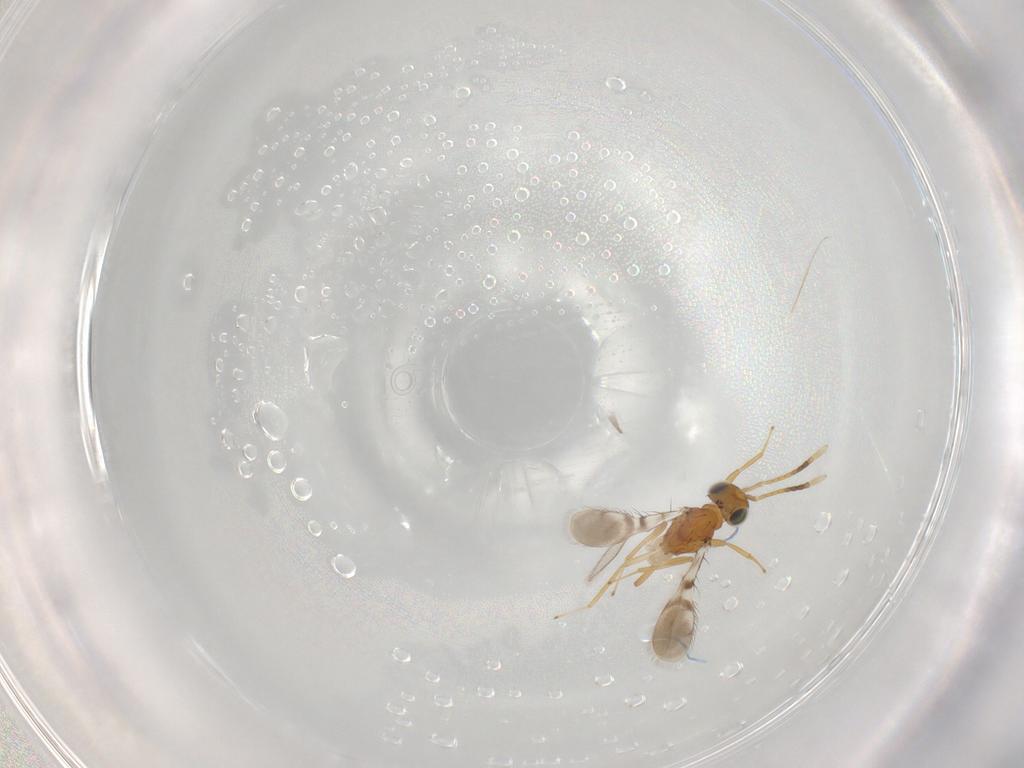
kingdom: Animalia
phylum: Arthropoda
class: Insecta
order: Hymenoptera
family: Diparidae
